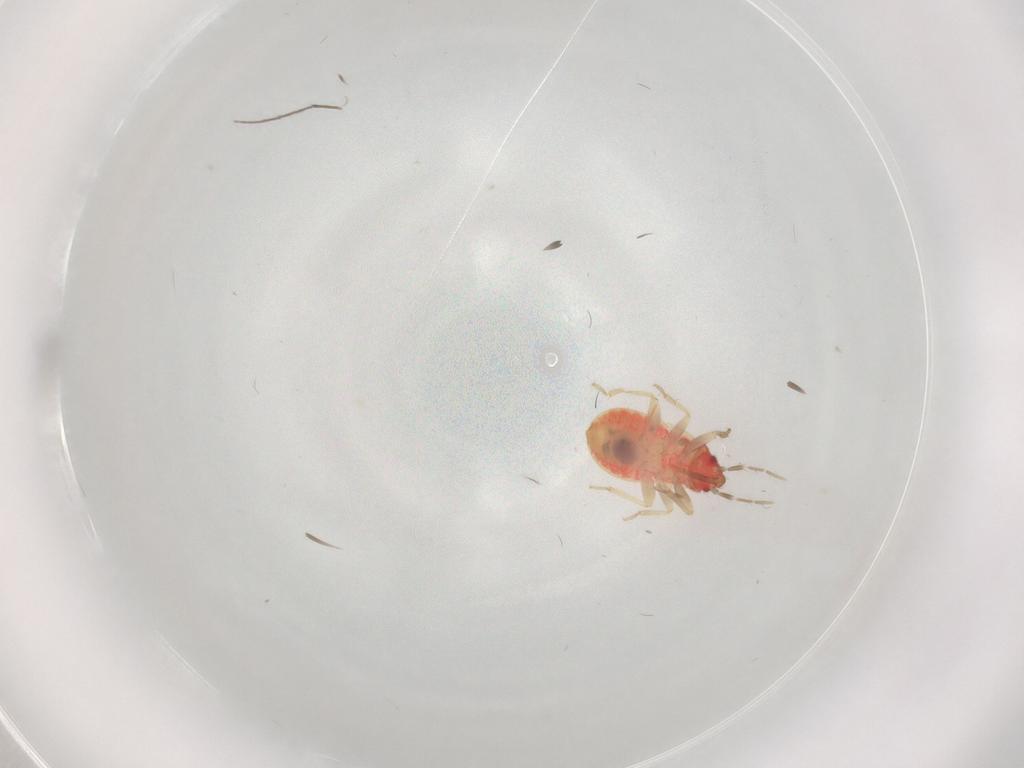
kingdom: Animalia
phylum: Arthropoda
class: Insecta
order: Hemiptera
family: Anthocoridae
